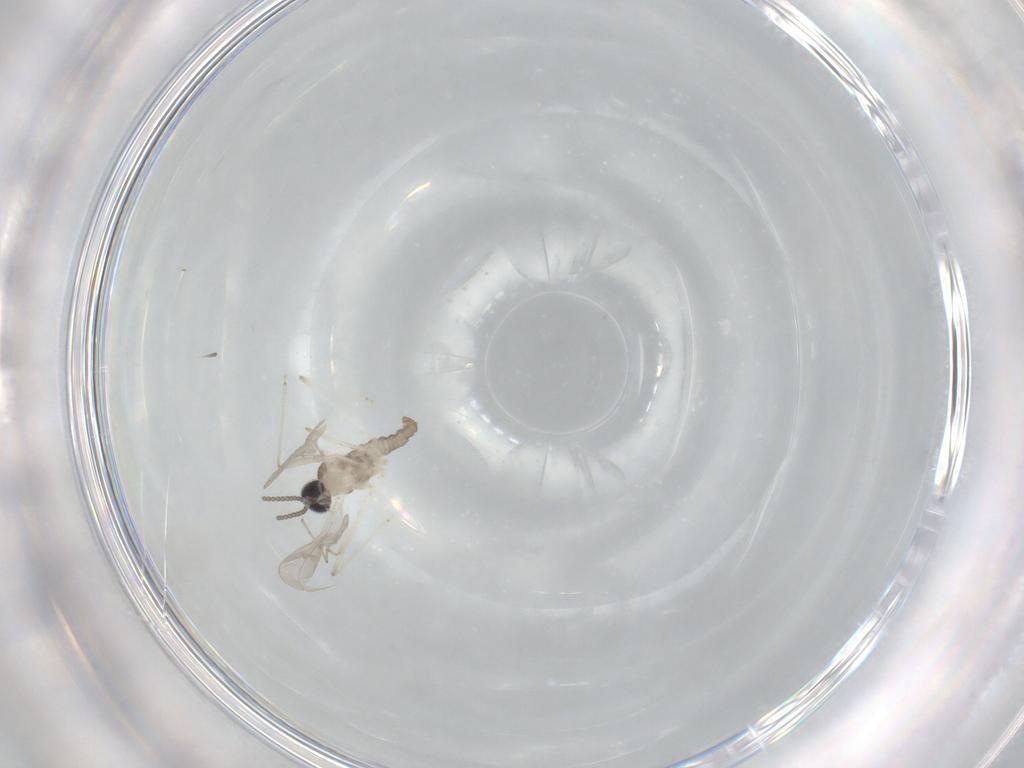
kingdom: Animalia
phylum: Arthropoda
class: Insecta
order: Diptera
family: Cecidomyiidae
